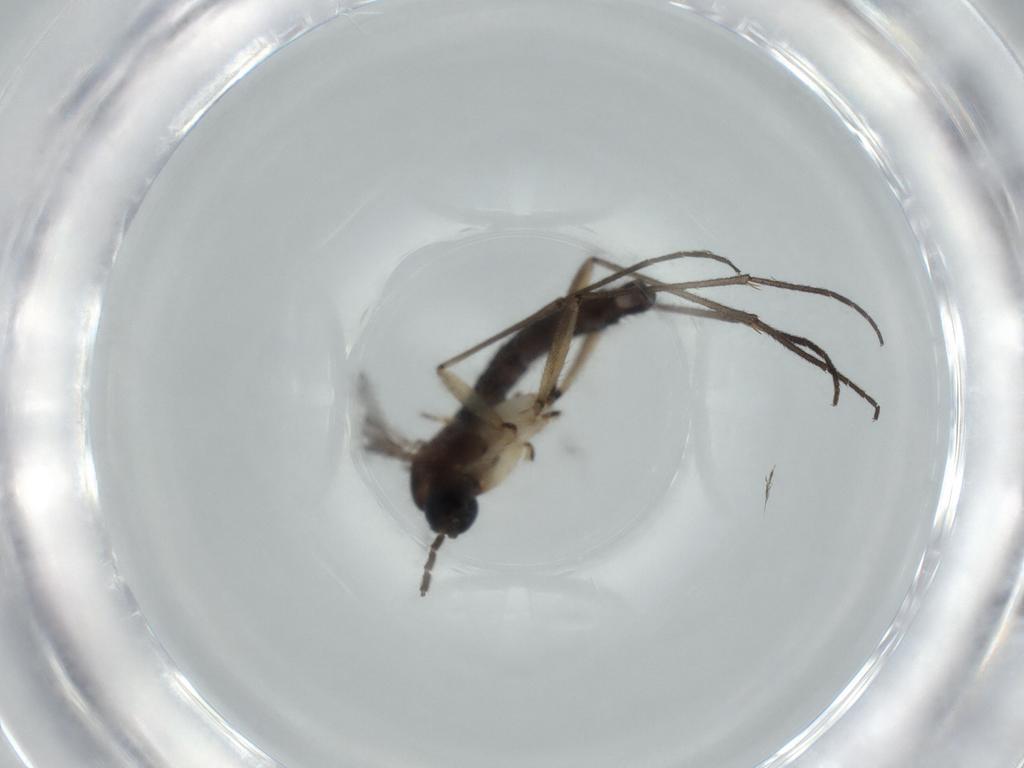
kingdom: Animalia
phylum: Arthropoda
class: Insecta
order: Diptera
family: Sciaridae
